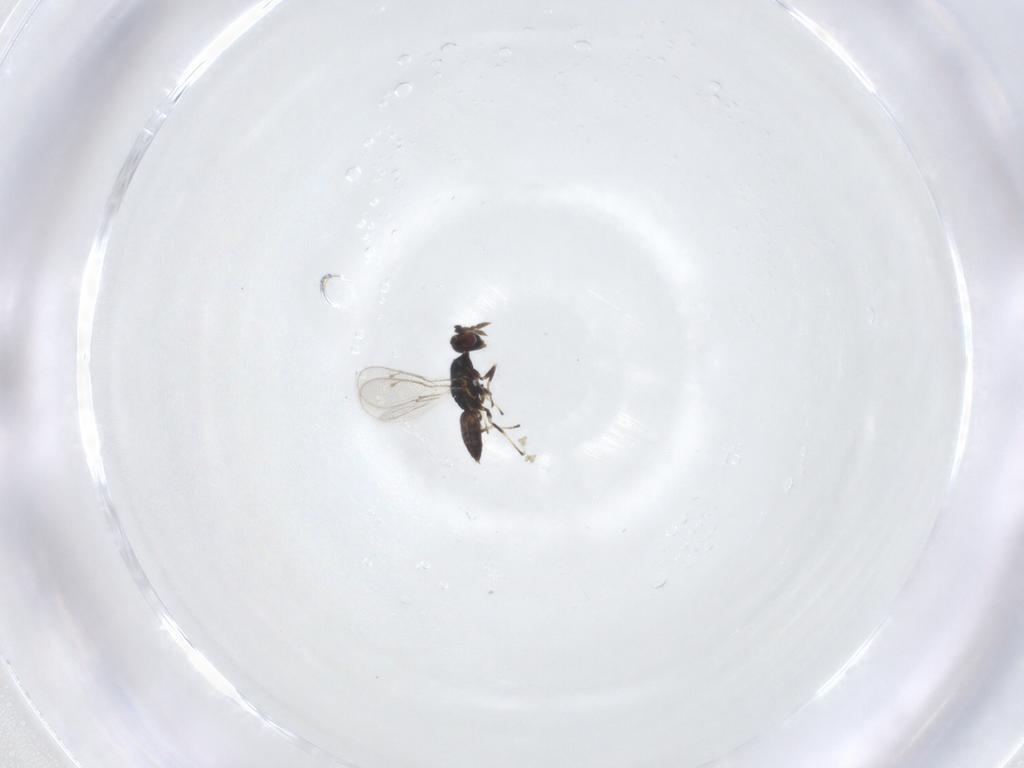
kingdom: Animalia
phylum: Arthropoda
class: Insecta
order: Hymenoptera
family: Eulophidae
